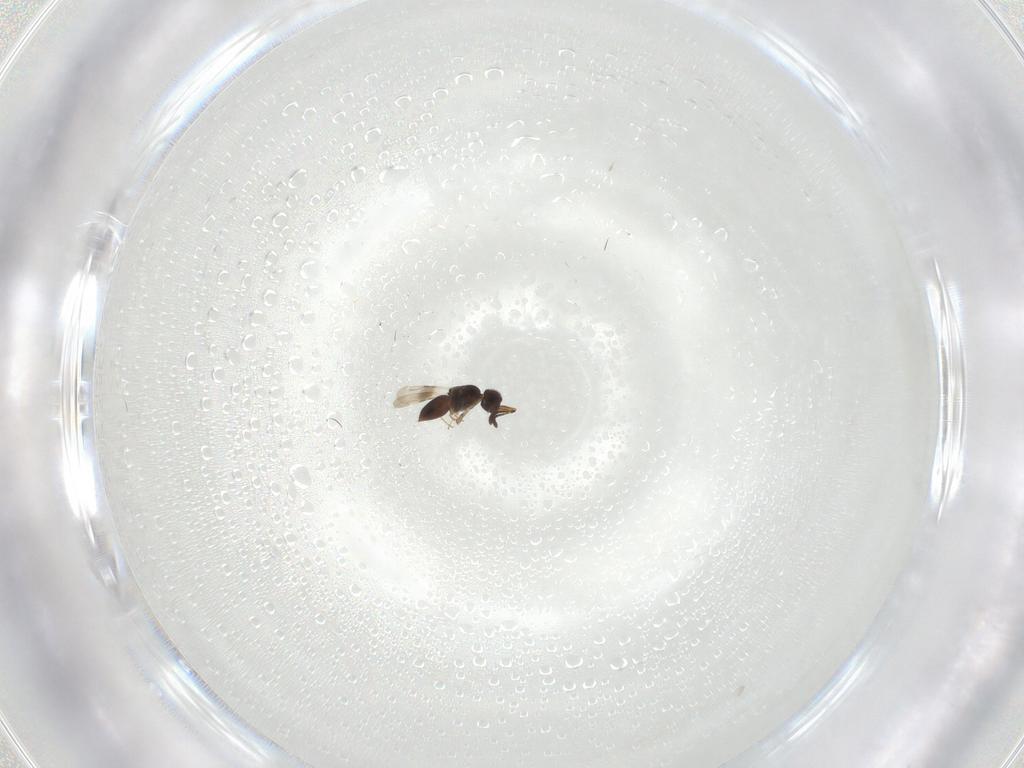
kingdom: Animalia
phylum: Arthropoda
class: Insecta
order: Hymenoptera
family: Ceraphronidae
